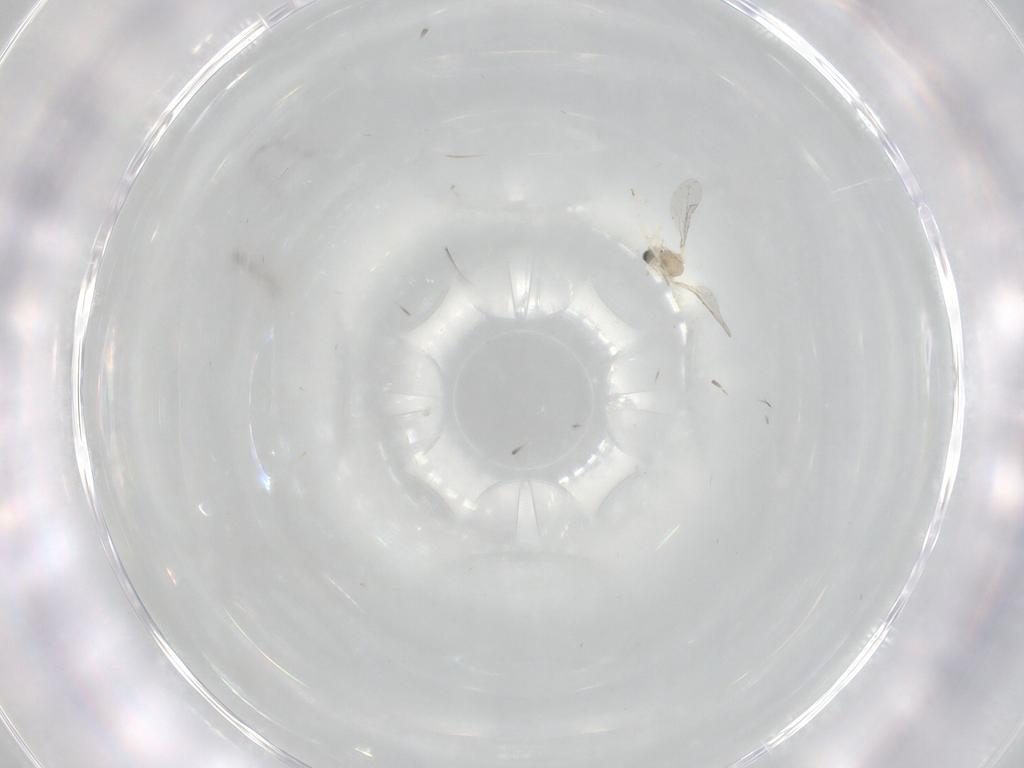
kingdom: Animalia
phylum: Arthropoda
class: Insecta
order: Diptera
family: Cecidomyiidae
